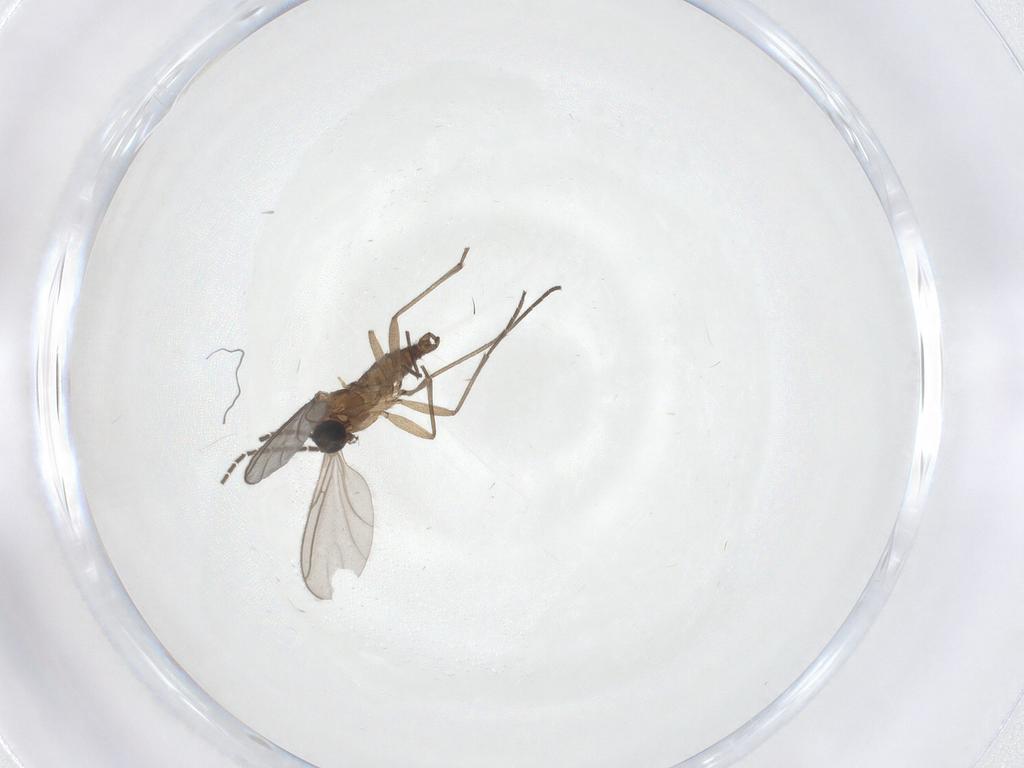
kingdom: Animalia
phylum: Arthropoda
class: Insecta
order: Diptera
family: Sciaridae
